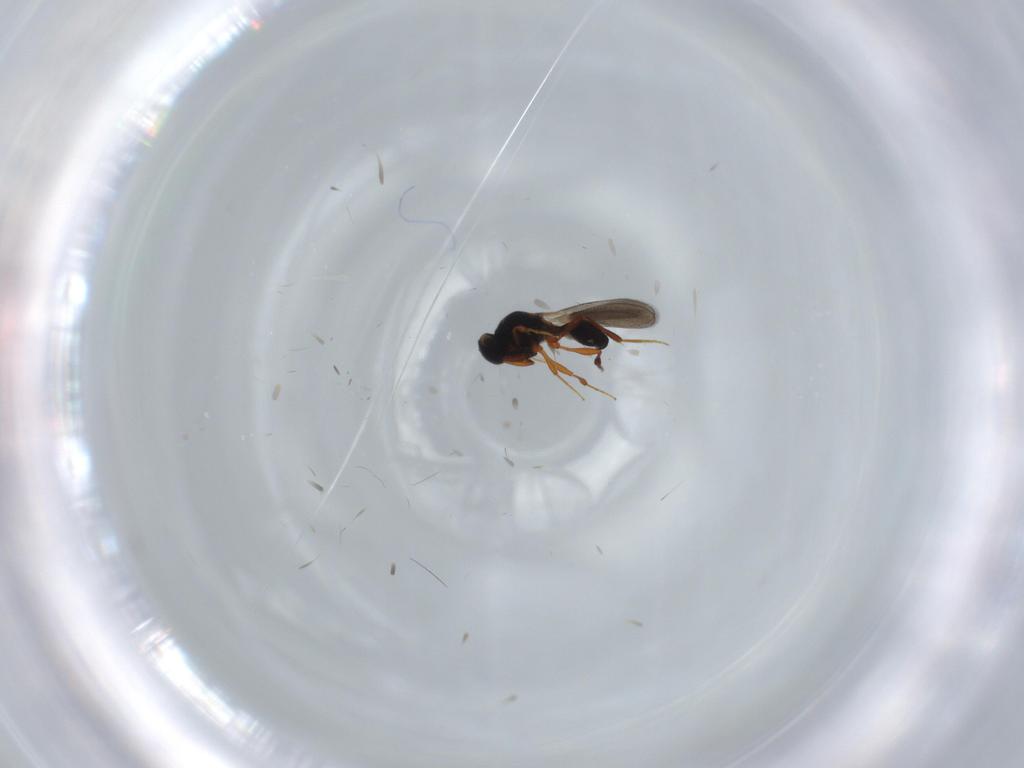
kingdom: Animalia
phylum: Arthropoda
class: Insecta
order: Hymenoptera
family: Platygastridae
